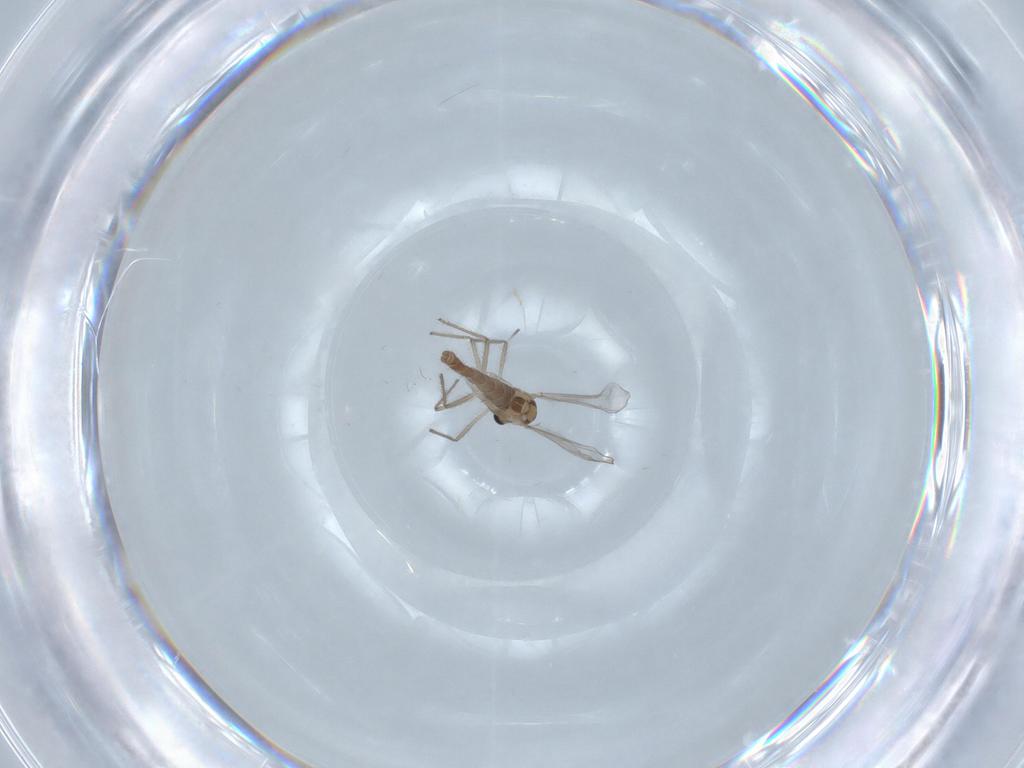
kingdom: Animalia
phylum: Arthropoda
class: Insecta
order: Diptera
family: Chironomidae
